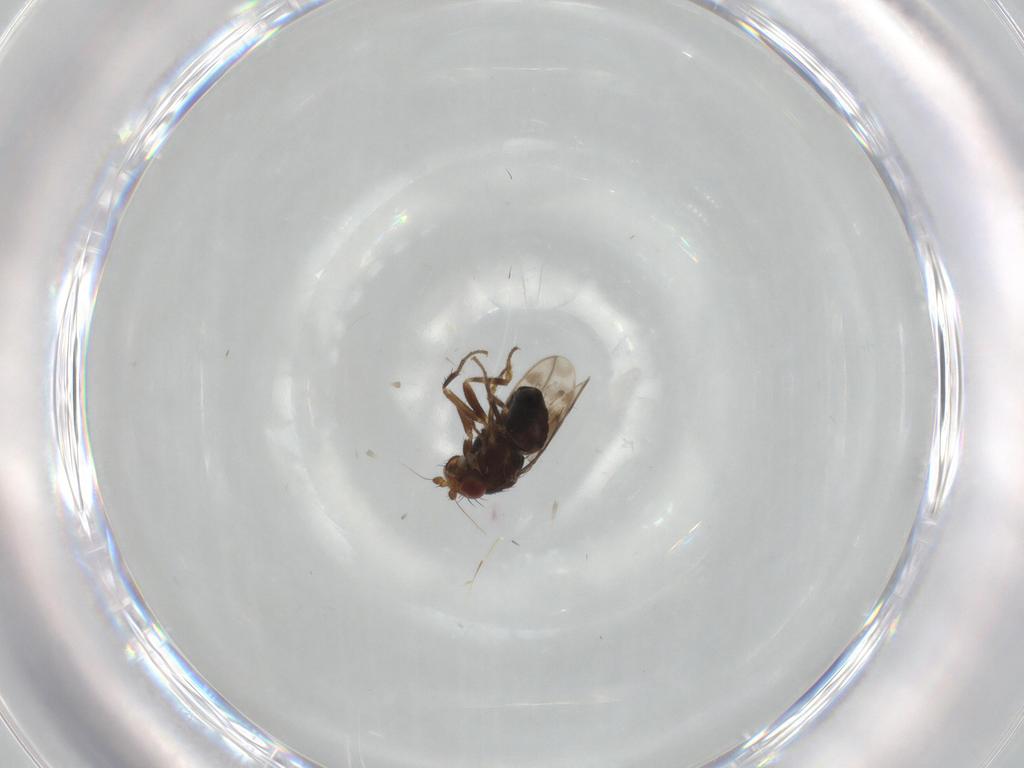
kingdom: Animalia
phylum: Arthropoda
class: Insecta
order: Diptera
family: Sphaeroceridae
